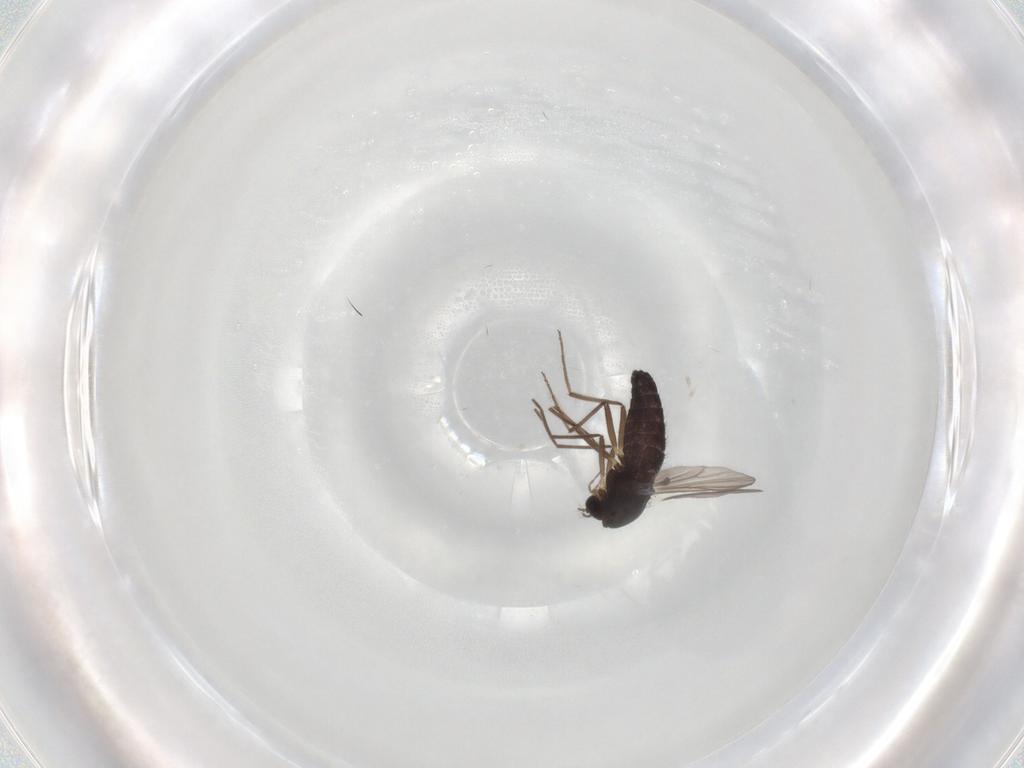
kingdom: Animalia
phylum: Arthropoda
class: Insecta
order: Diptera
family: Chironomidae
